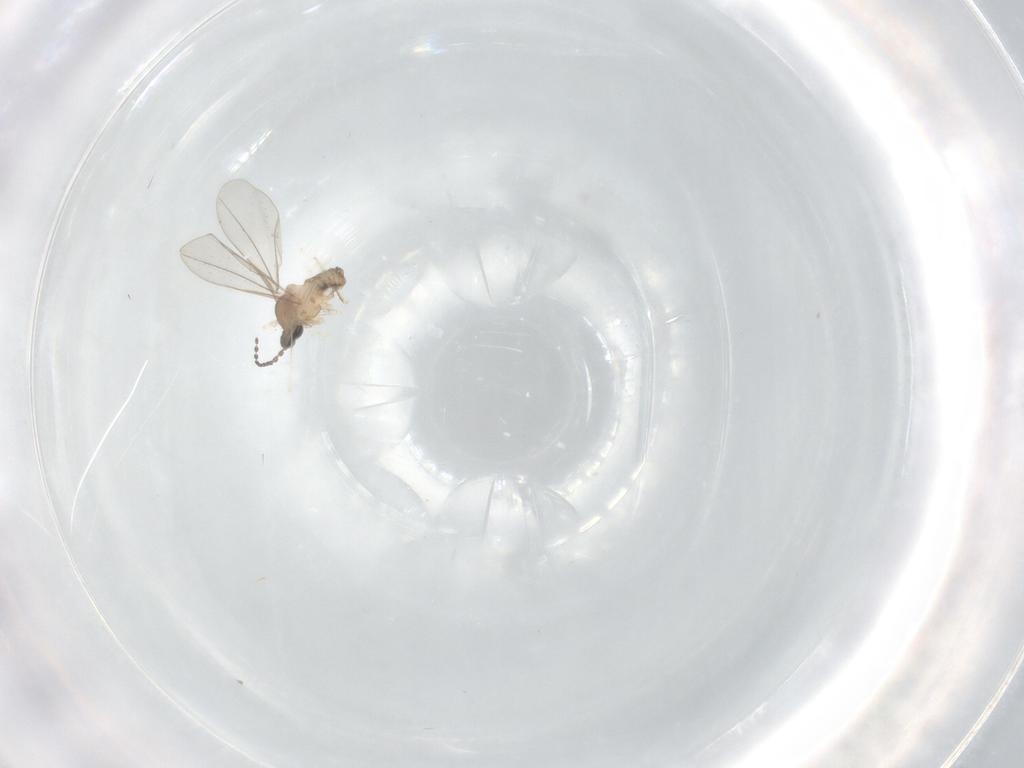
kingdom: Animalia
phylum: Arthropoda
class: Insecta
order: Diptera
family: Cecidomyiidae
